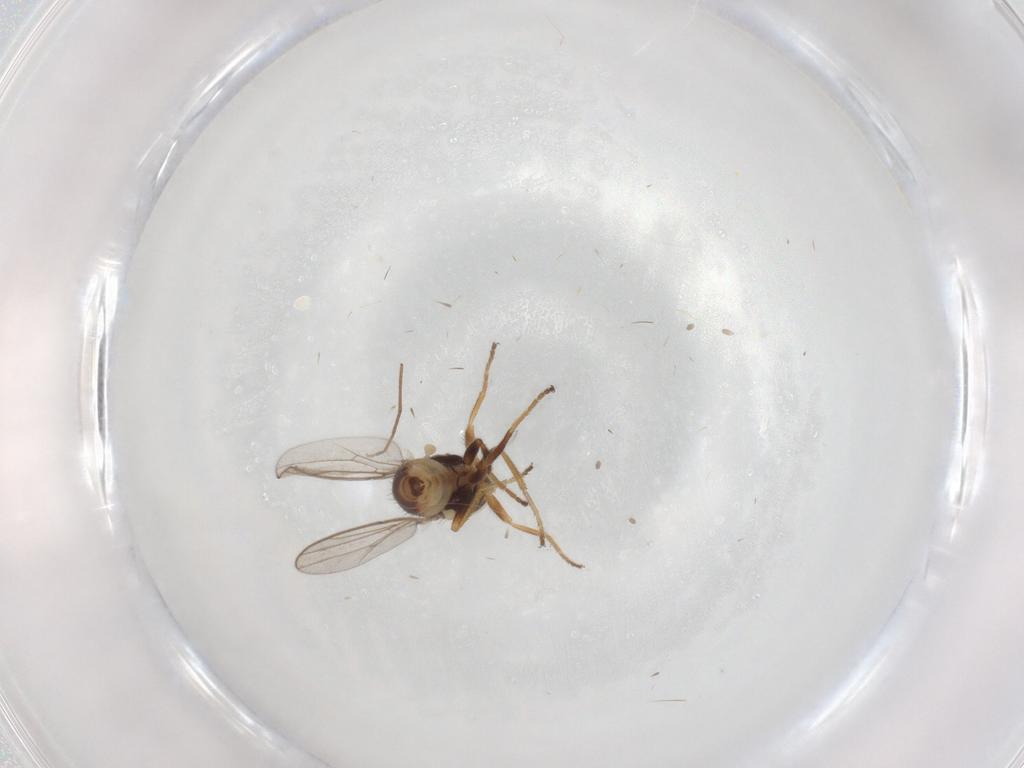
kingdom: Animalia
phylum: Arthropoda
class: Insecta
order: Diptera
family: Chloropidae
